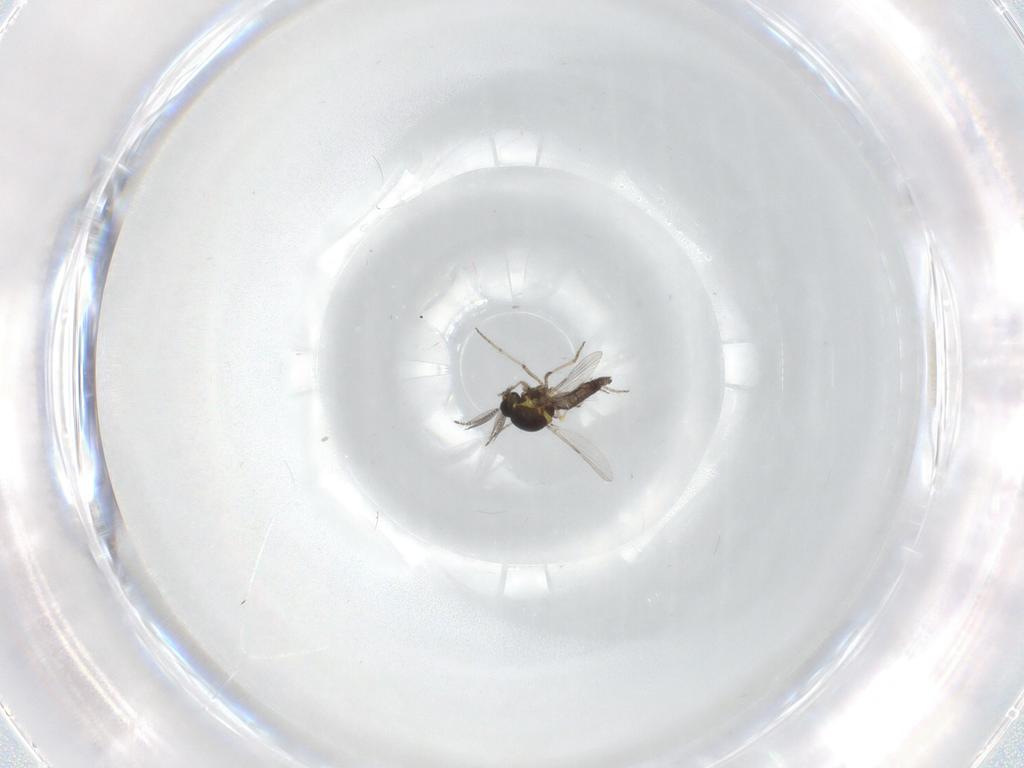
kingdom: Animalia
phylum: Arthropoda
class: Insecta
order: Diptera
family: Ceratopogonidae
